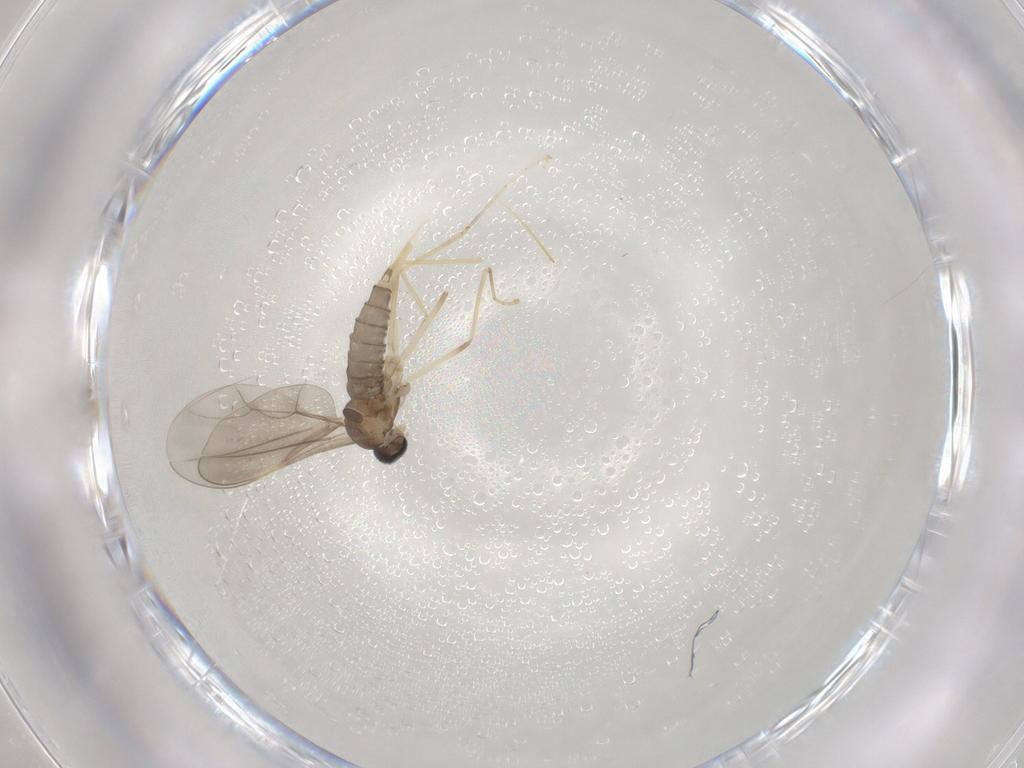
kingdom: Animalia
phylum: Arthropoda
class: Insecta
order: Diptera
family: Cecidomyiidae
